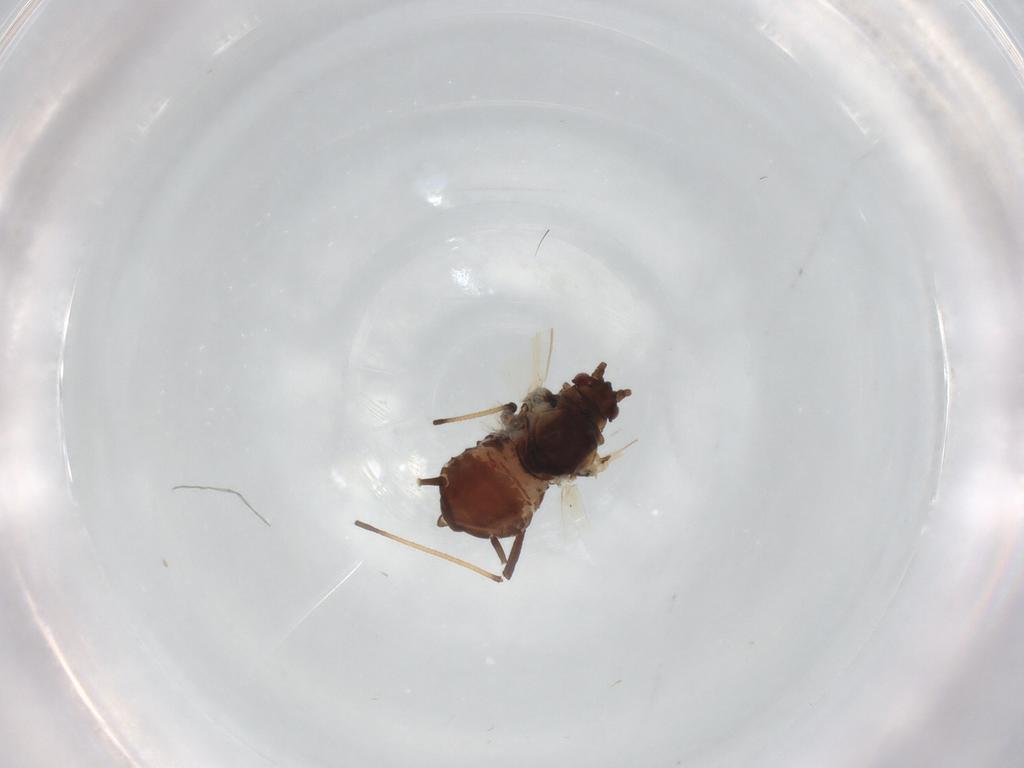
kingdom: Animalia
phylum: Arthropoda
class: Insecta
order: Hemiptera
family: Aphididae
